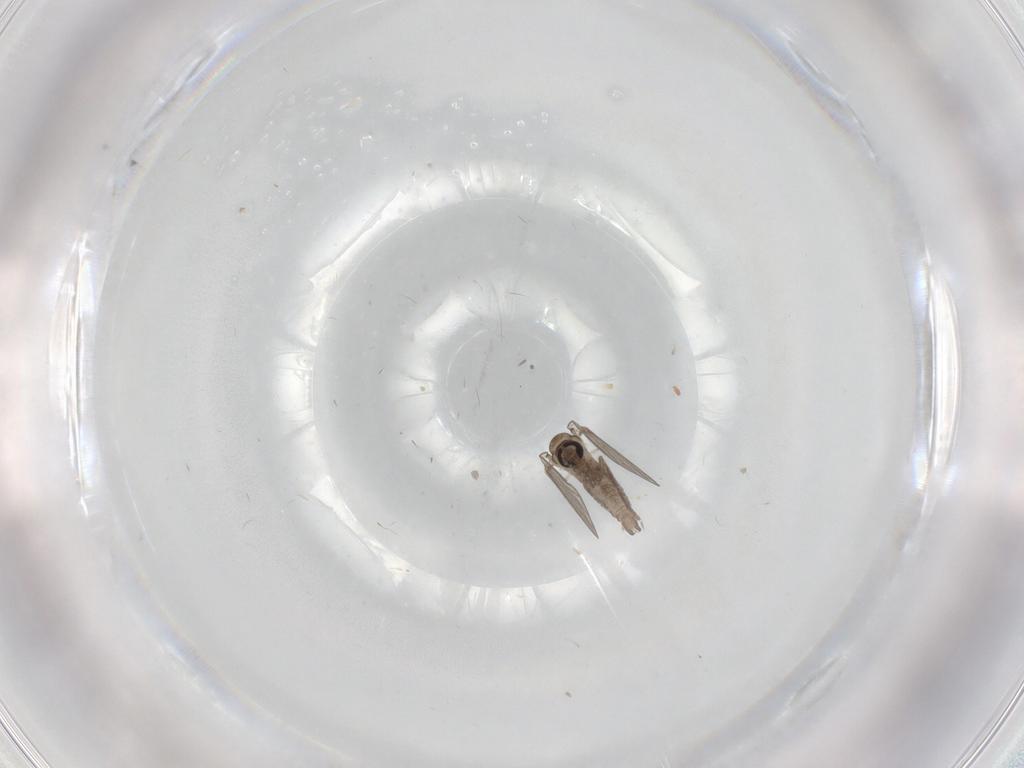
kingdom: Animalia
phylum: Arthropoda
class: Insecta
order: Diptera
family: Psychodidae
